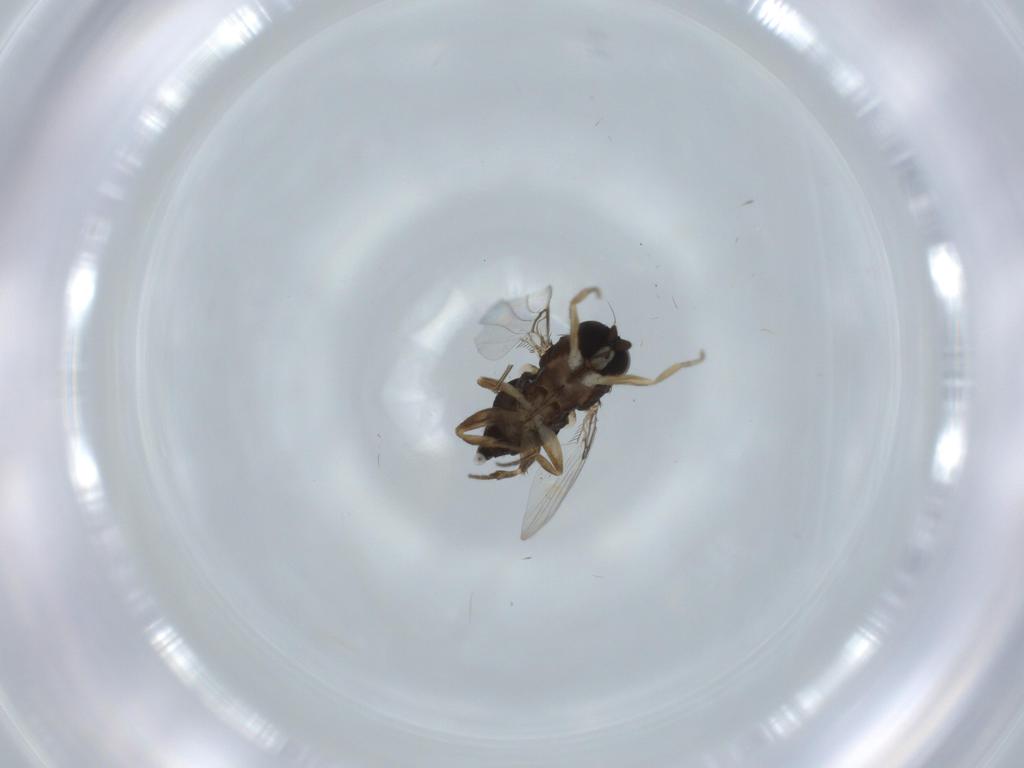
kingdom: Animalia
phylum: Arthropoda
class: Insecta
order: Diptera
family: Phoridae
